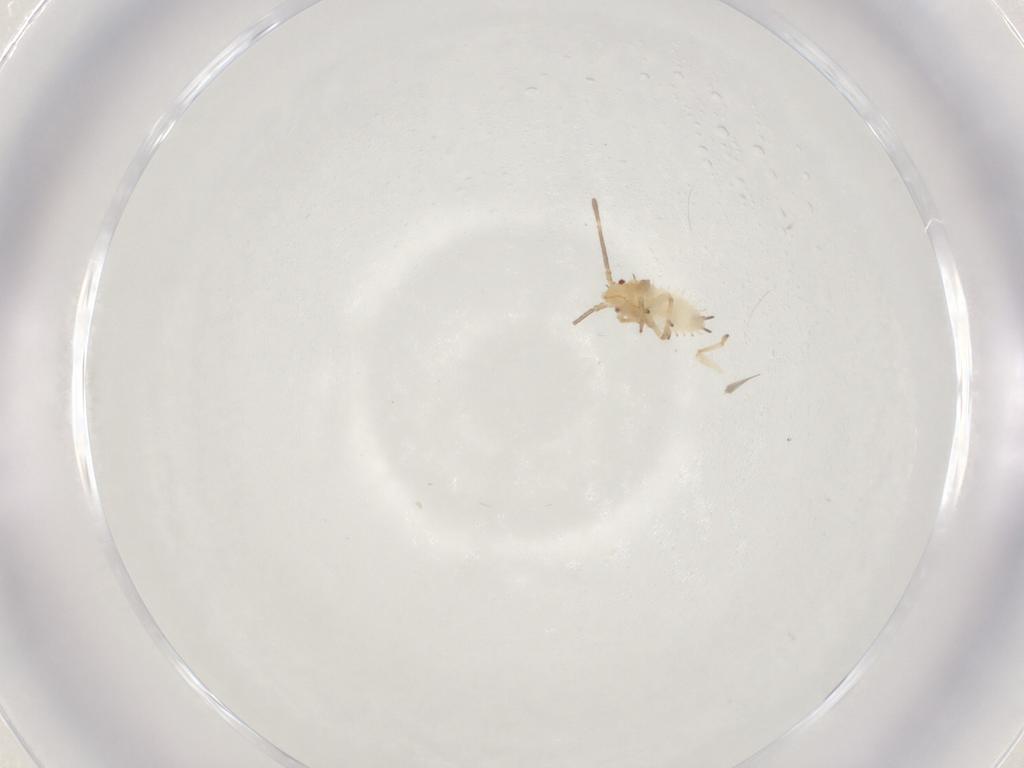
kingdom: Animalia
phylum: Arthropoda
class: Insecta
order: Hemiptera
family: Tingidae
